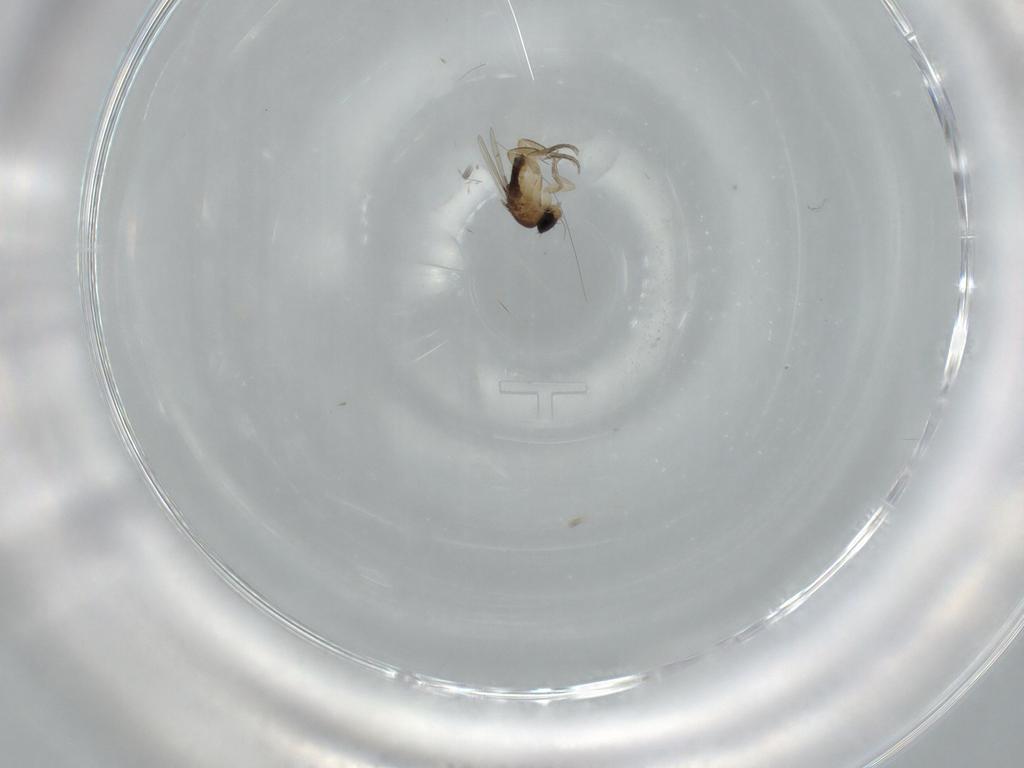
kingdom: Animalia
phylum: Arthropoda
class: Insecta
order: Diptera
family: Phoridae
